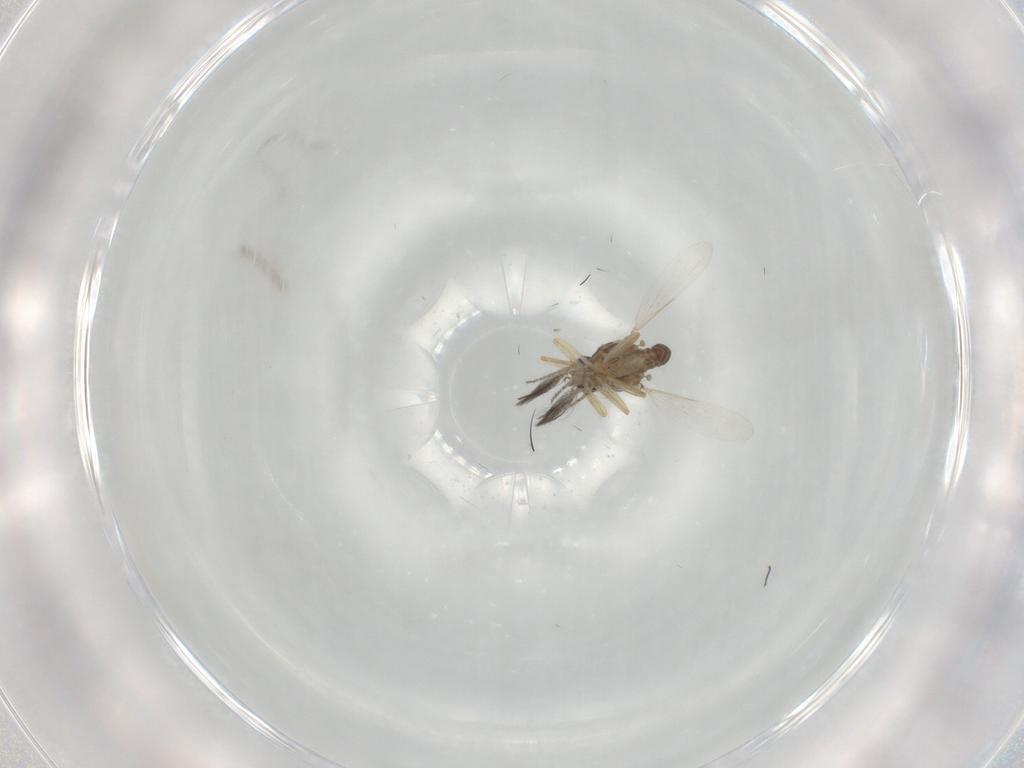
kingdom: Animalia
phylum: Arthropoda
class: Insecta
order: Diptera
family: Ceratopogonidae
